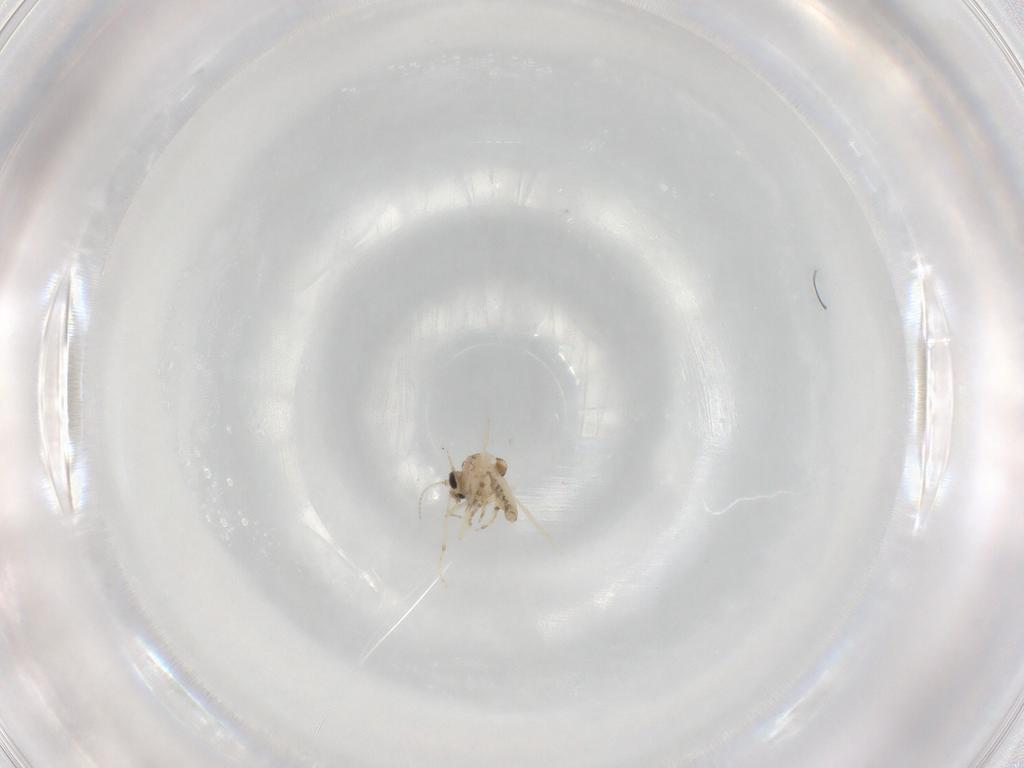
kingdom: Animalia
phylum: Arthropoda
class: Insecta
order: Diptera
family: Ceratopogonidae
